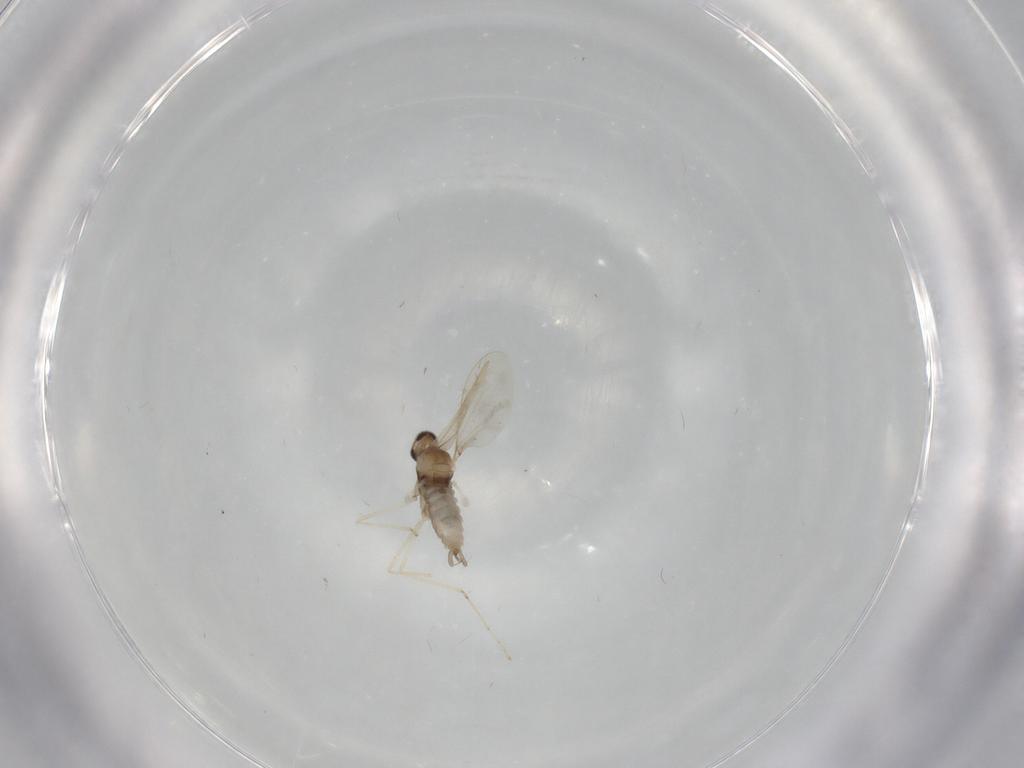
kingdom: Animalia
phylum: Arthropoda
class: Insecta
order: Diptera
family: Cecidomyiidae
